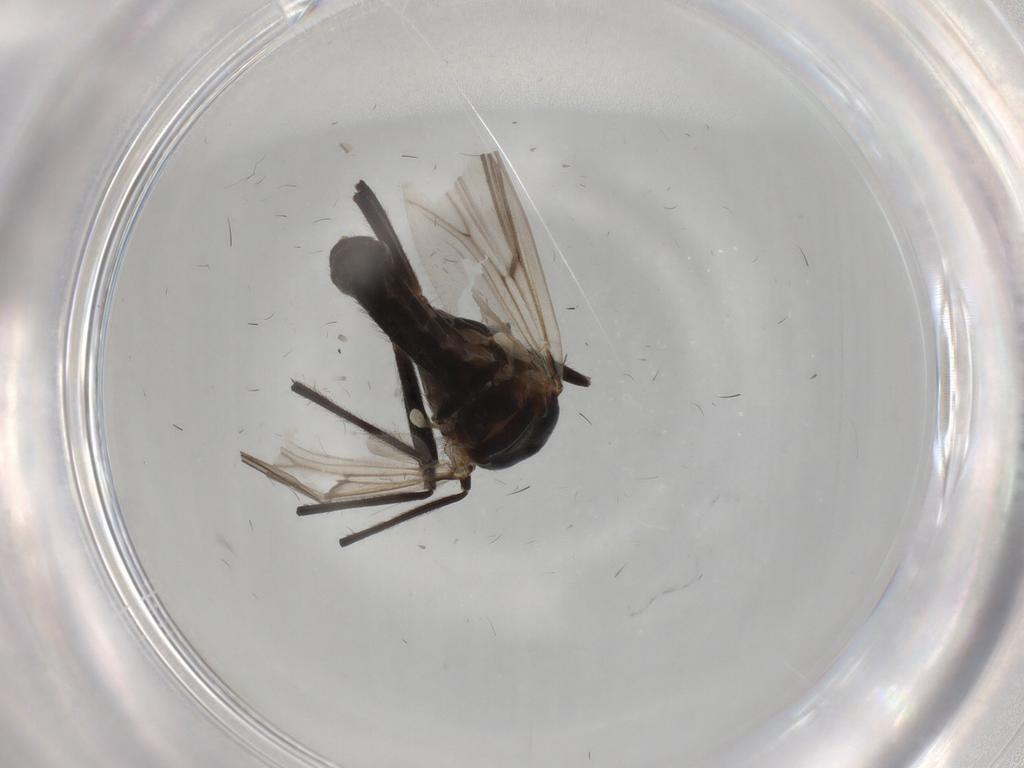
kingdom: Animalia
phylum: Arthropoda
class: Insecta
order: Diptera
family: Chironomidae
